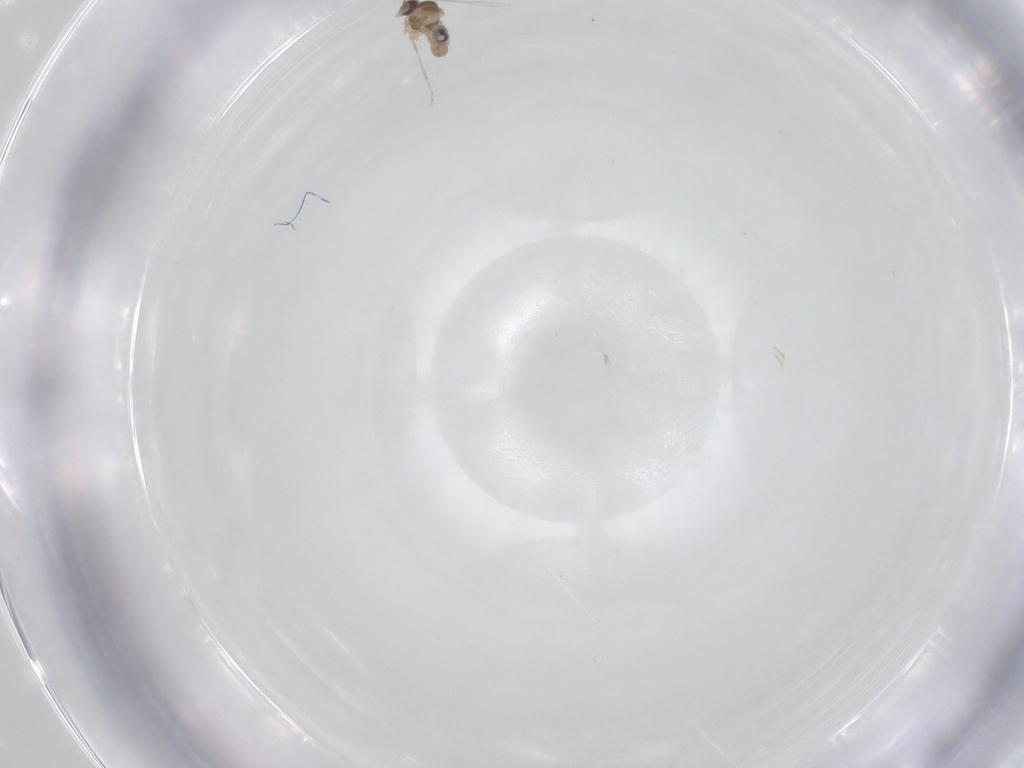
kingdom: Animalia
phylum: Arthropoda
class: Insecta
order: Diptera
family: Cecidomyiidae
